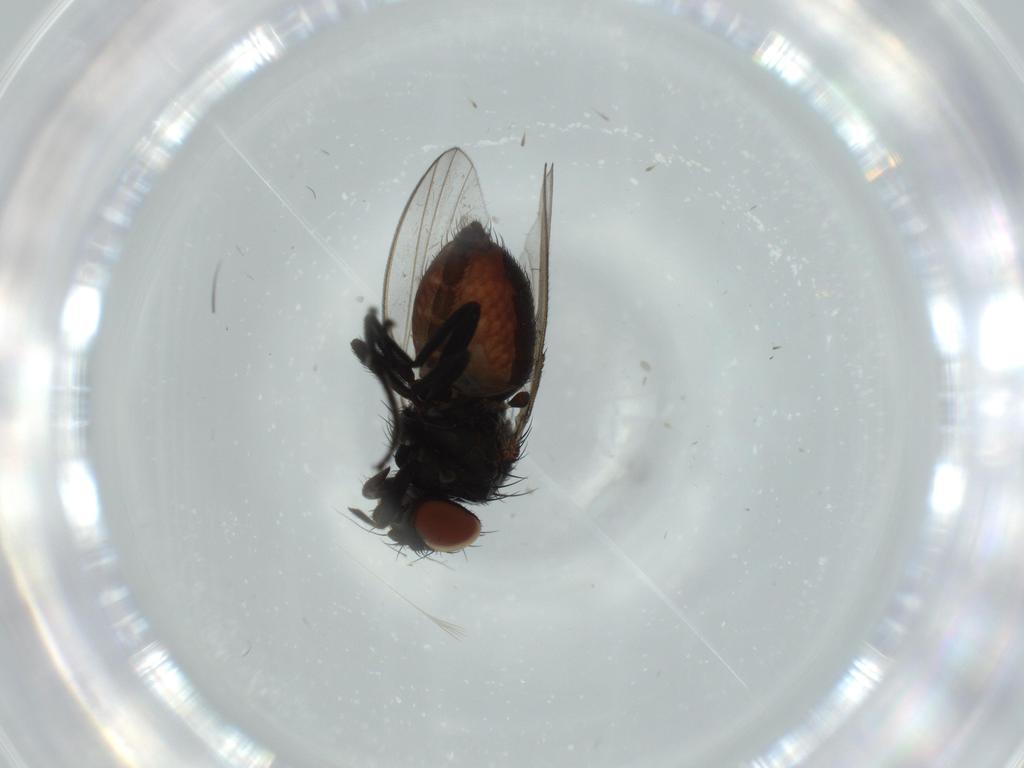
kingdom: Animalia
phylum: Arthropoda
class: Insecta
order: Diptera
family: Milichiidae
